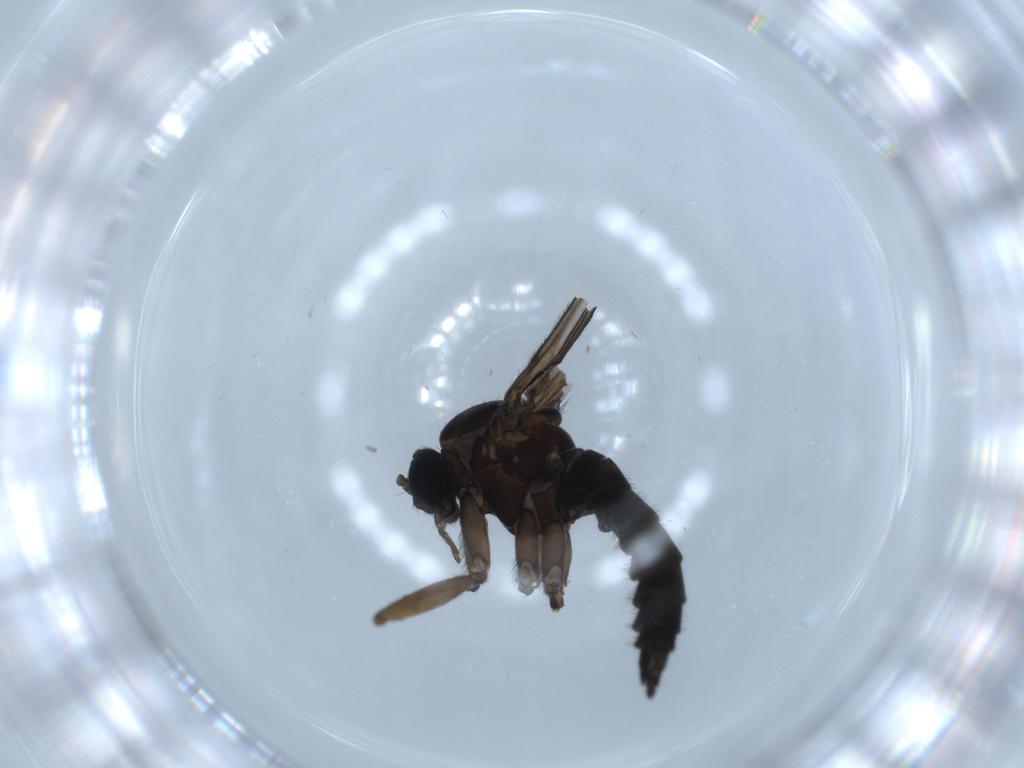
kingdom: Animalia
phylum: Arthropoda
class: Insecta
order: Diptera
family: Sciaridae
